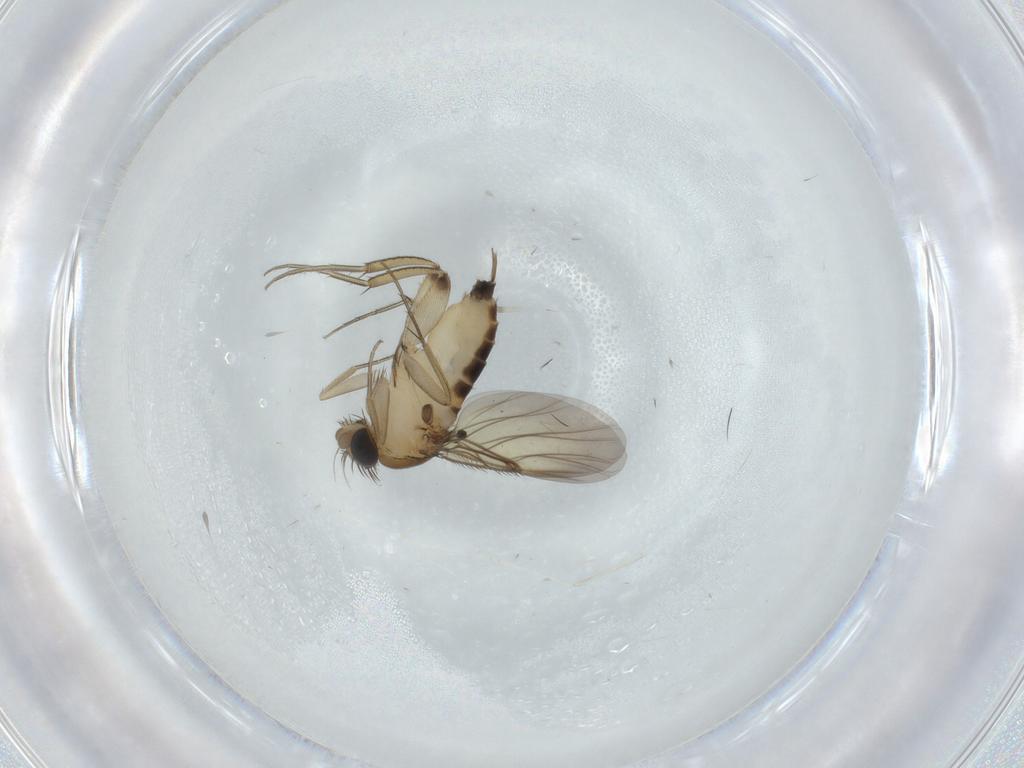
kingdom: Animalia
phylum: Arthropoda
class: Insecta
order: Diptera
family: Phoridae
